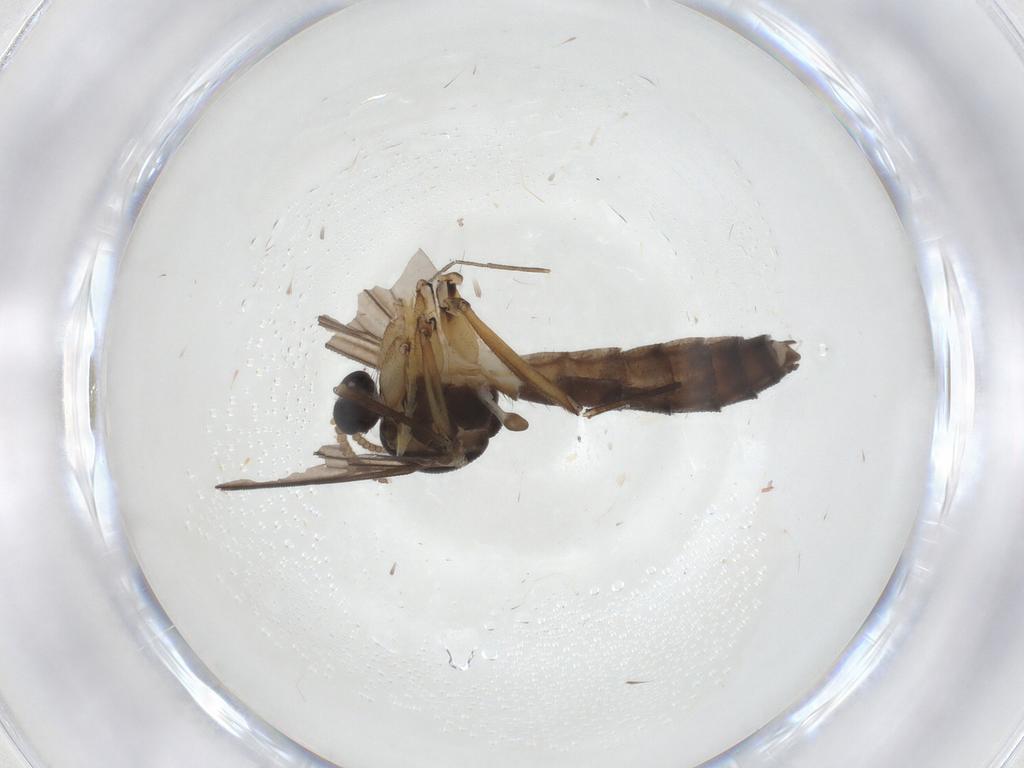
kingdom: Animalia
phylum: Arthropoda
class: Insecta
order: Diptera
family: Mycetophilidae
